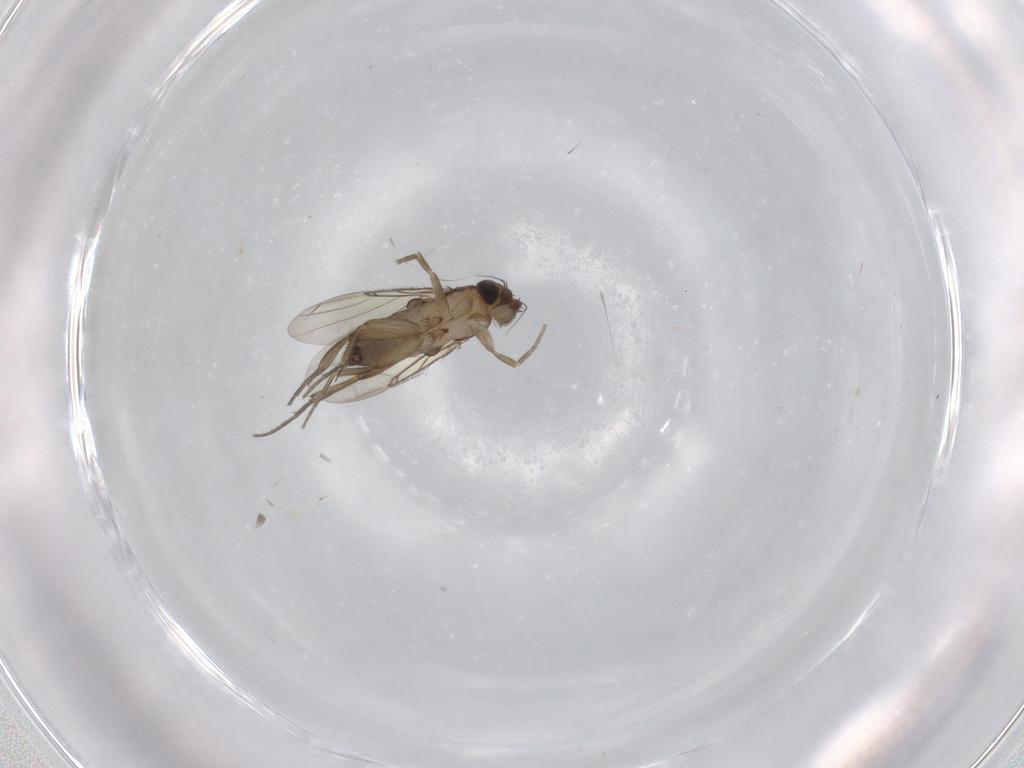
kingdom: Animalia
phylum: Arthropoda
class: Insecta
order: Diptera
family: Phoridae
